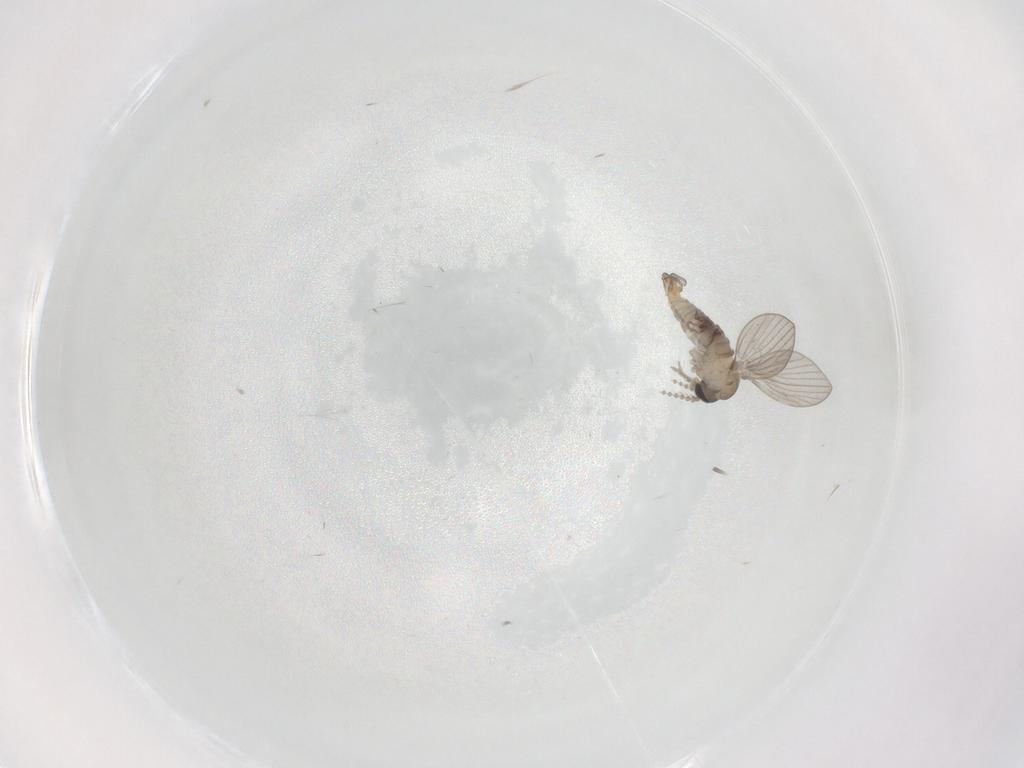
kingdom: Animalia
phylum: Arthropoda
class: Insecta
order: Diptera
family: Psychodidae
